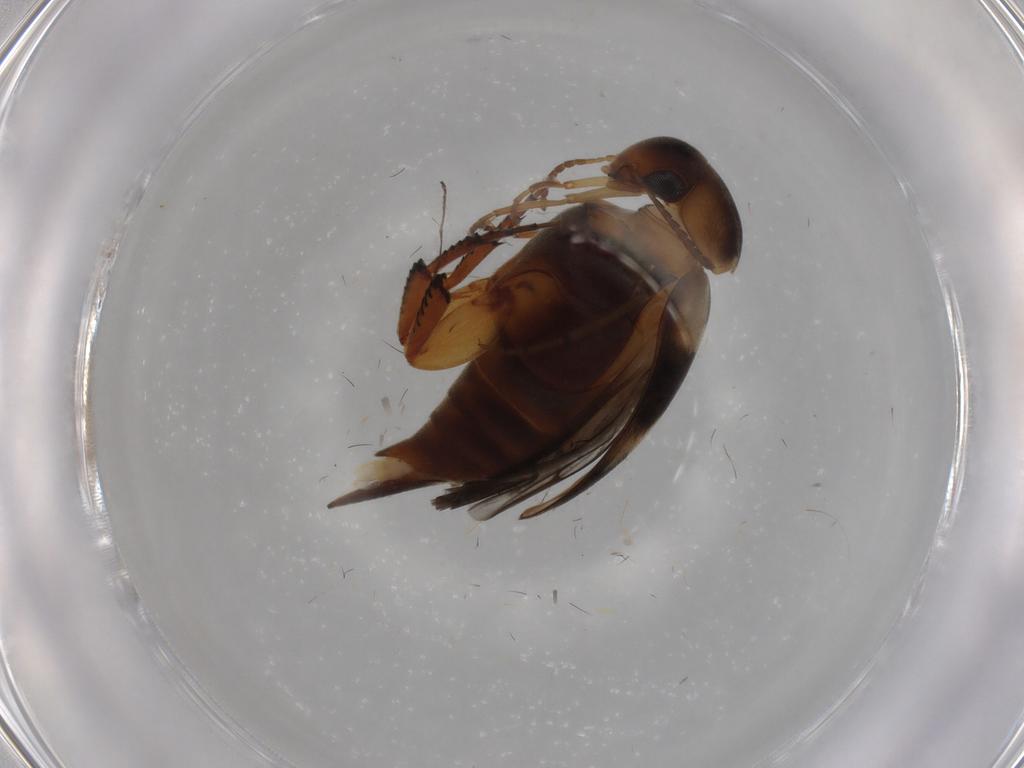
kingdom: Animalia
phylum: Arthropoda
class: Insecta
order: Coleoptera
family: Mordellidae
